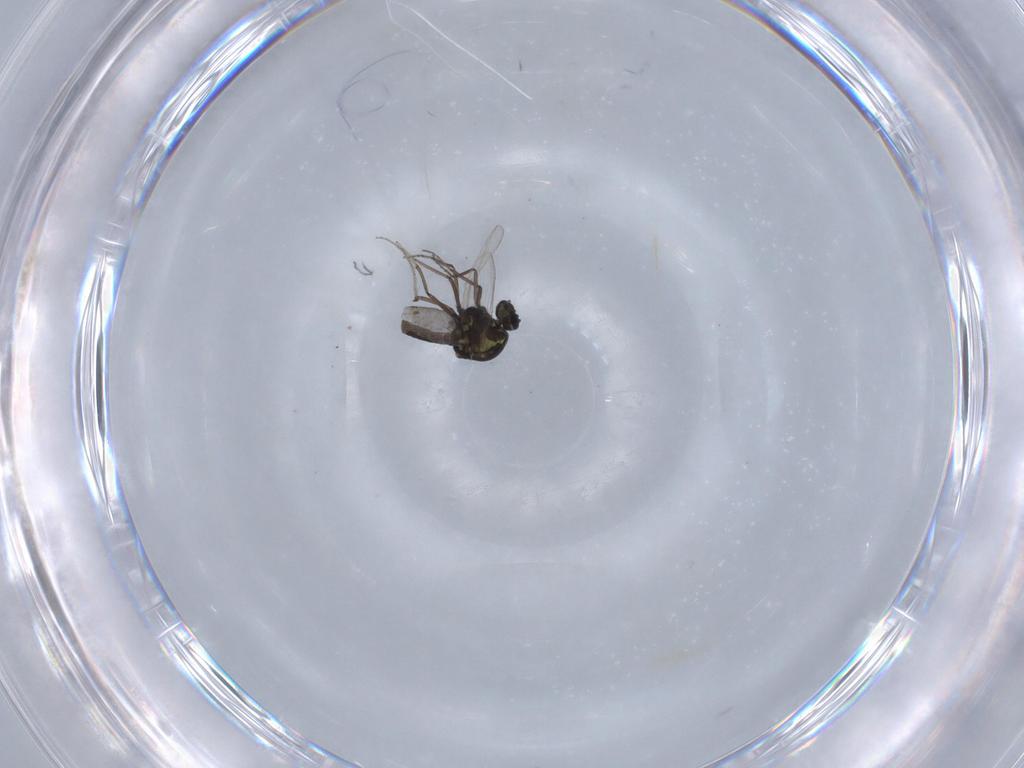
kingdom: Animalia
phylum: Arthropoda
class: Insecta
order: Diptera
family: Ceratopogonidae
